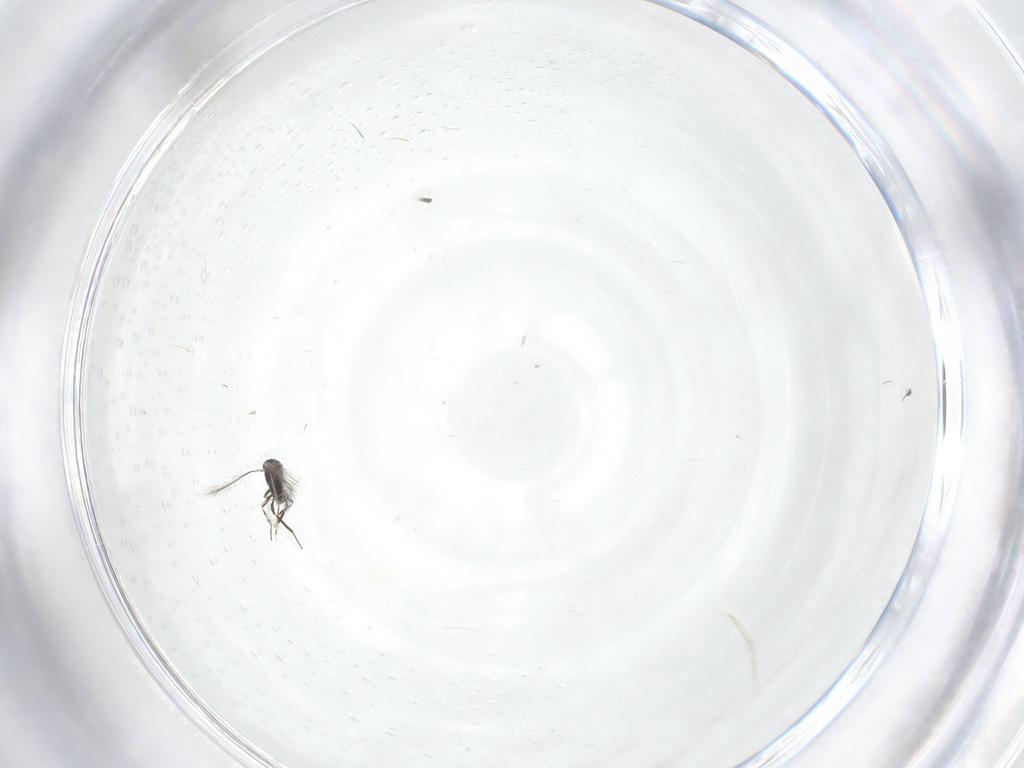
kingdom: Animalia
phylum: Arthropoda
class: Insecta
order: Hymenoptera
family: Mymaridae
